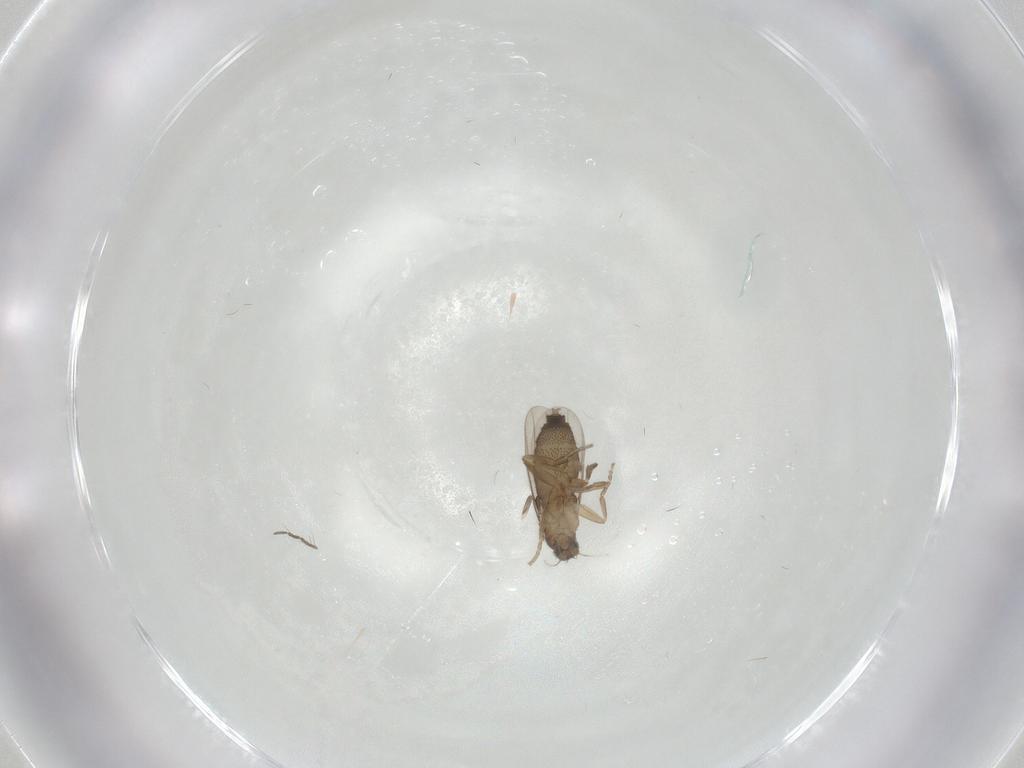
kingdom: Animalia
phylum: Arthropoda
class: Insecta
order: Diptera
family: Phoridae
